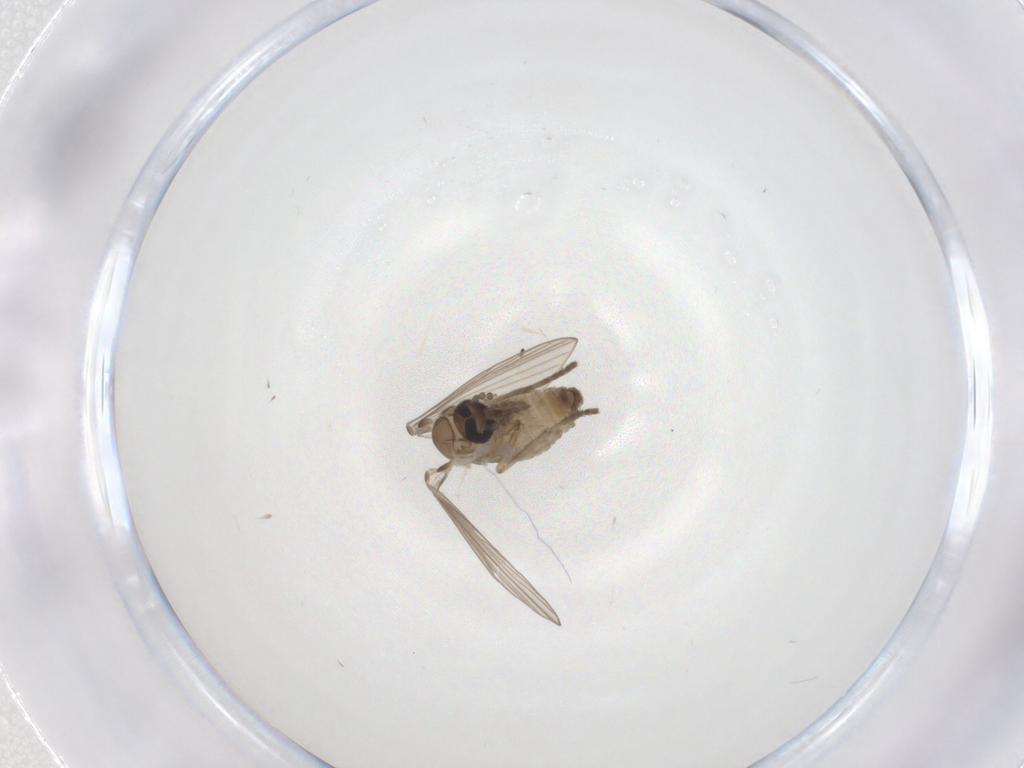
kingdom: Animalia
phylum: Arthropoda
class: Insecta
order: Diptera
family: Psychodidae
